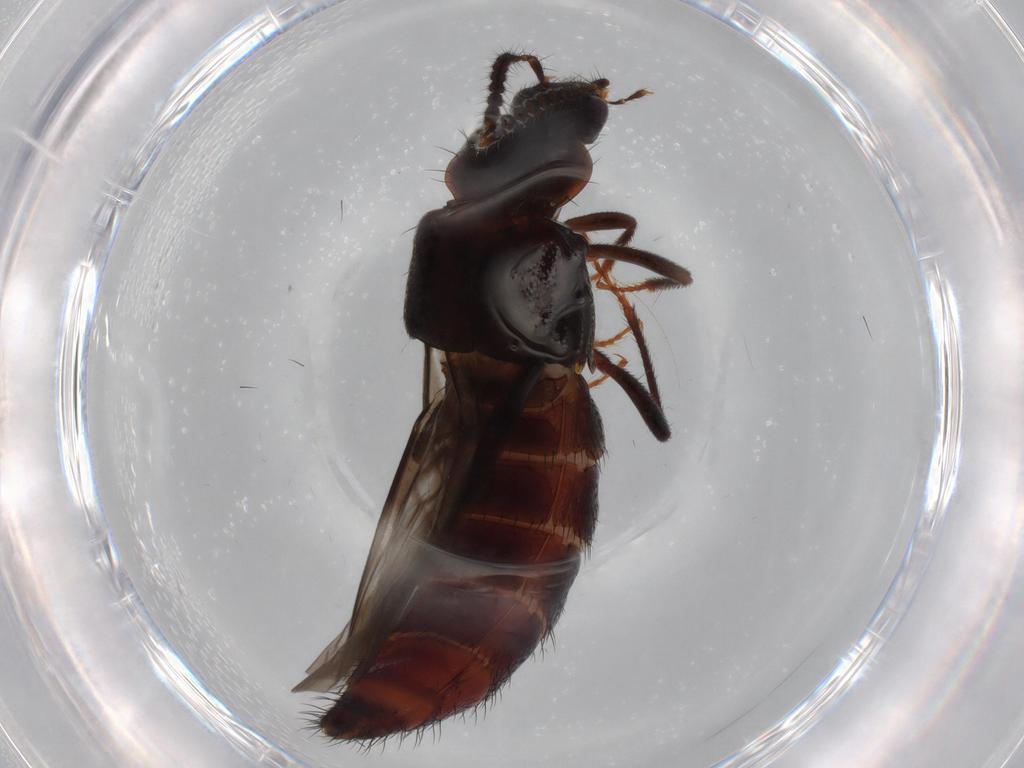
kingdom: Animalia
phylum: Arthropoda
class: Insecta
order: Coleoptera
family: Staphylinidae
